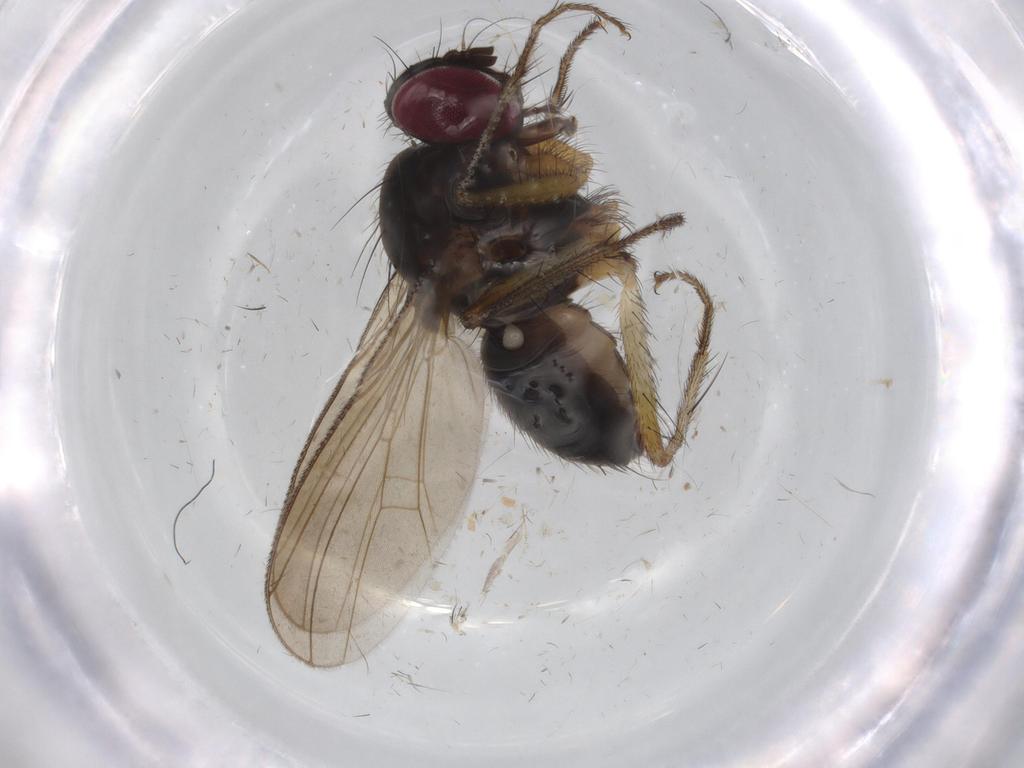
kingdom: Animalia
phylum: Arthropoda
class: Insecta
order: Diptera
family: Anthomyiidae
